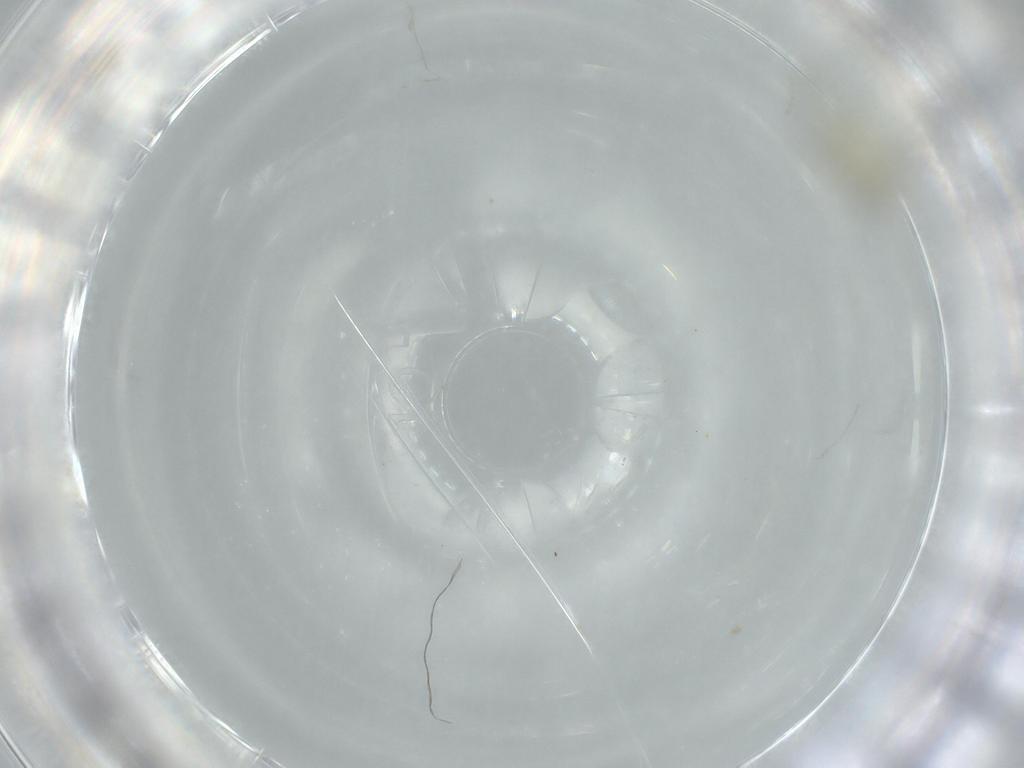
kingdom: Animalia
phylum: Arthropoda
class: Insecta
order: Psocodea
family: Caeciliusidae
